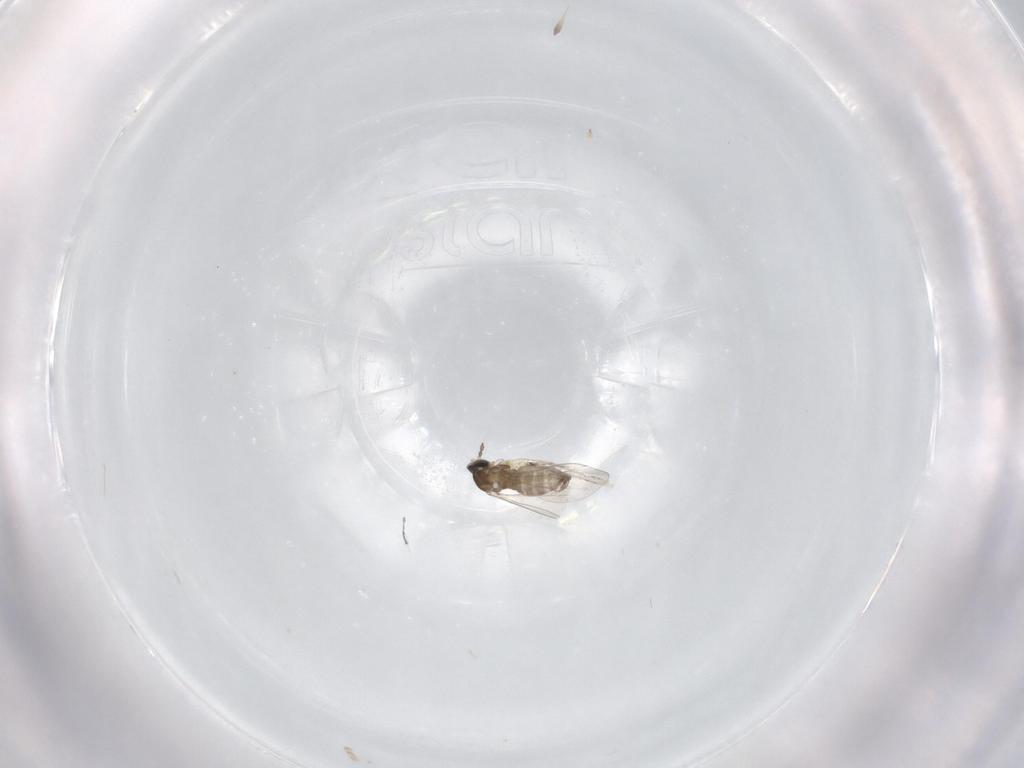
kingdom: Animalia
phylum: Arthropoda
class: Insecta
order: Diptera
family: Cecidomyiidae
